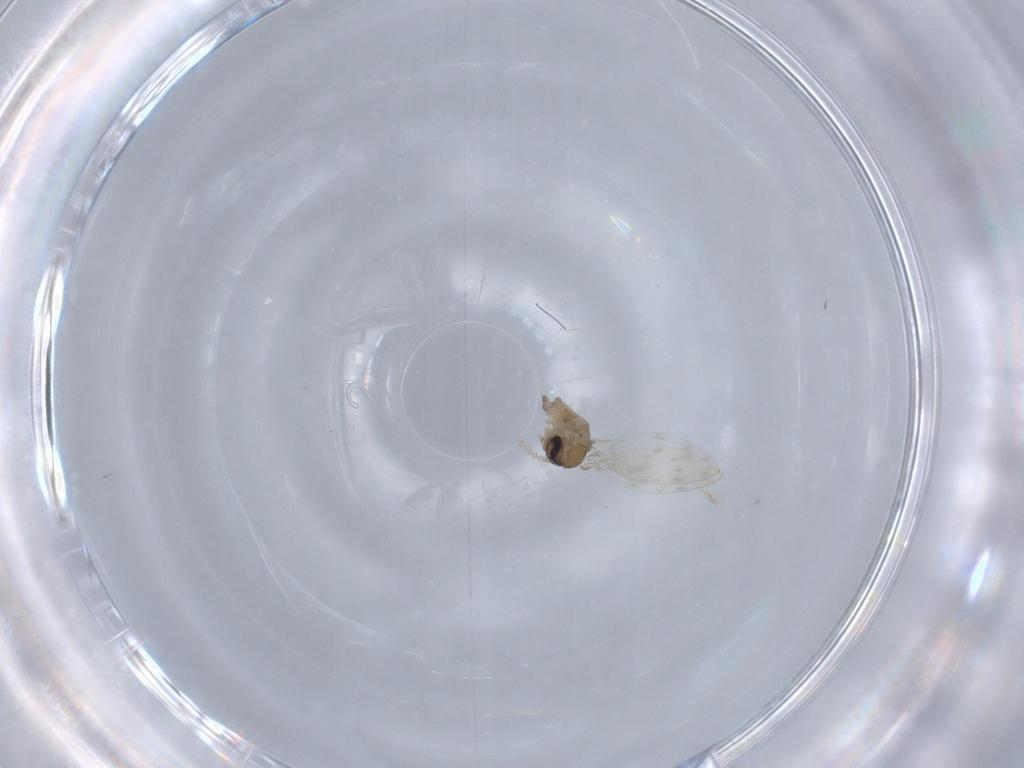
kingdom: Animalia
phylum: Arthropoda
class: Insecta
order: Diptera
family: Psychodidae
